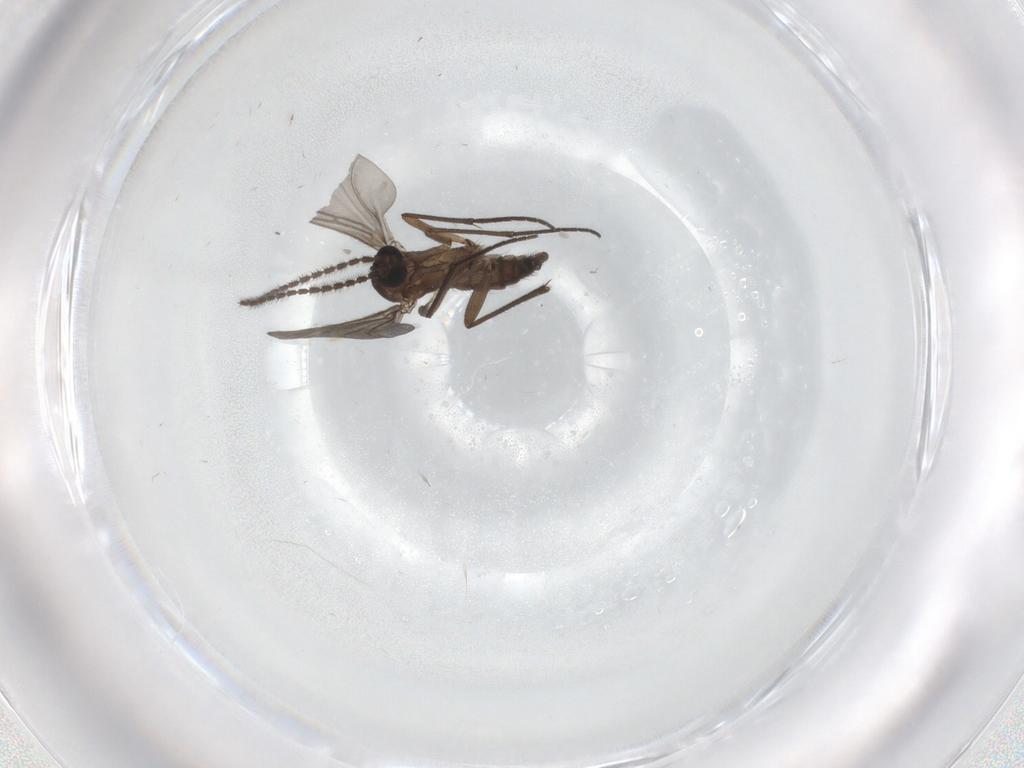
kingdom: Animalia
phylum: Arthropoda
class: Insecta
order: Diptera
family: Sciaridae
